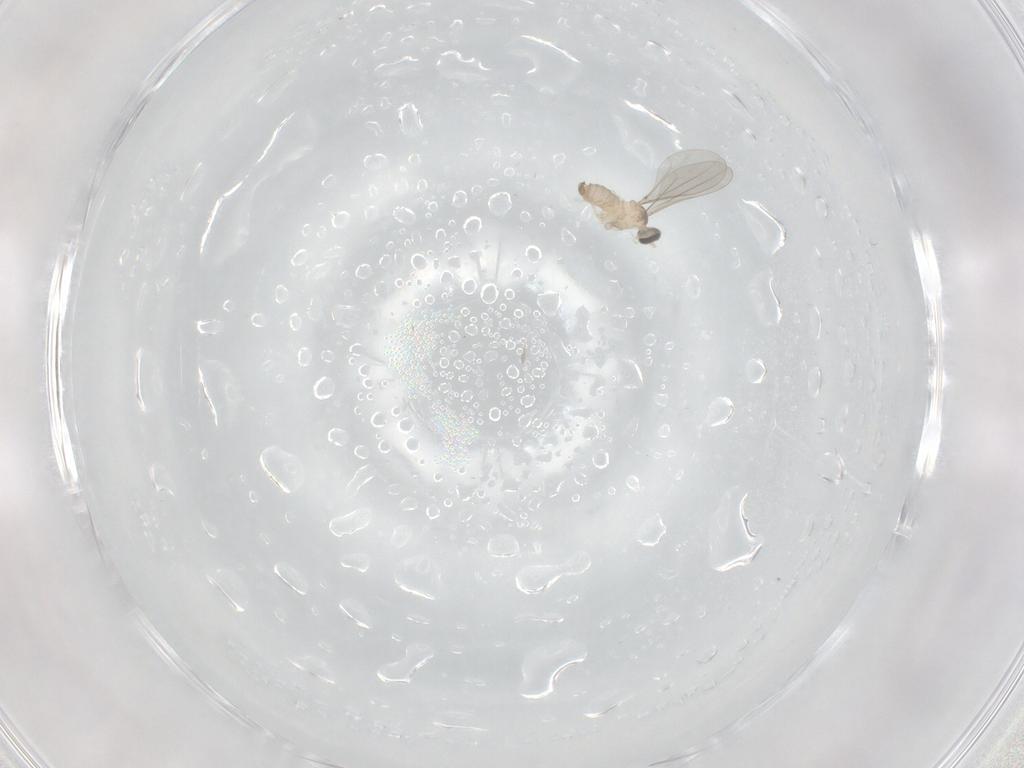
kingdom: Animalia
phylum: Arthropoda
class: Insecta
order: Diptera
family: Cecidomyiidae
